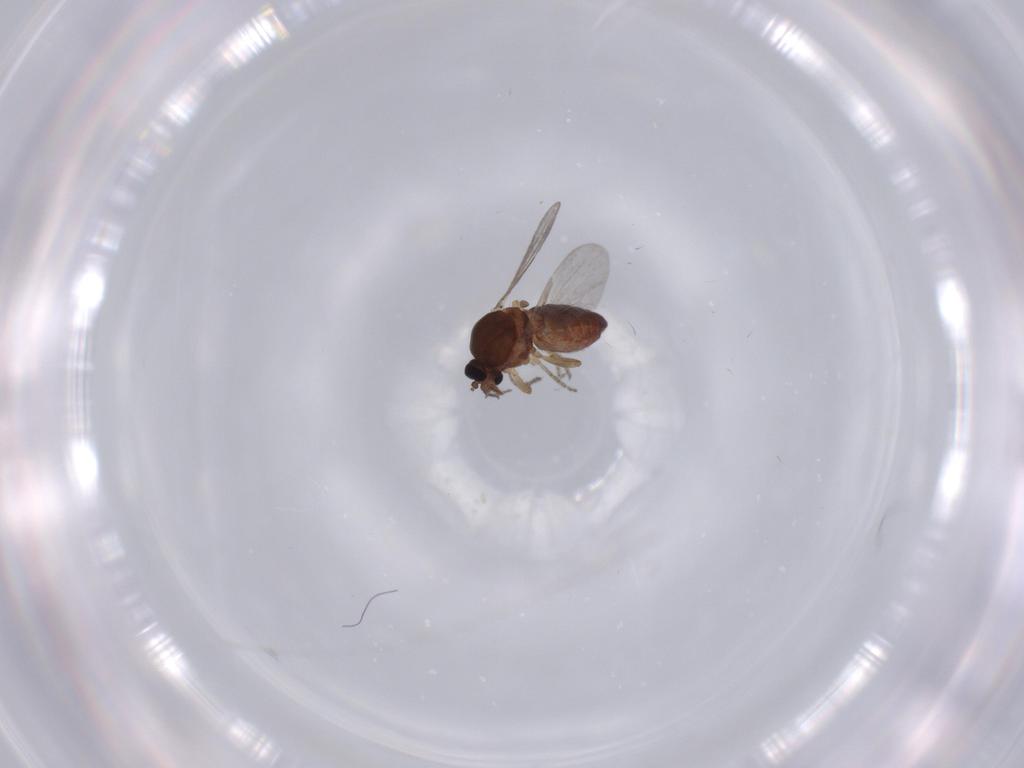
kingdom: Animalia
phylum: Arthropoda
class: Insecta
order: Diptera
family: Ceratopogonidae
